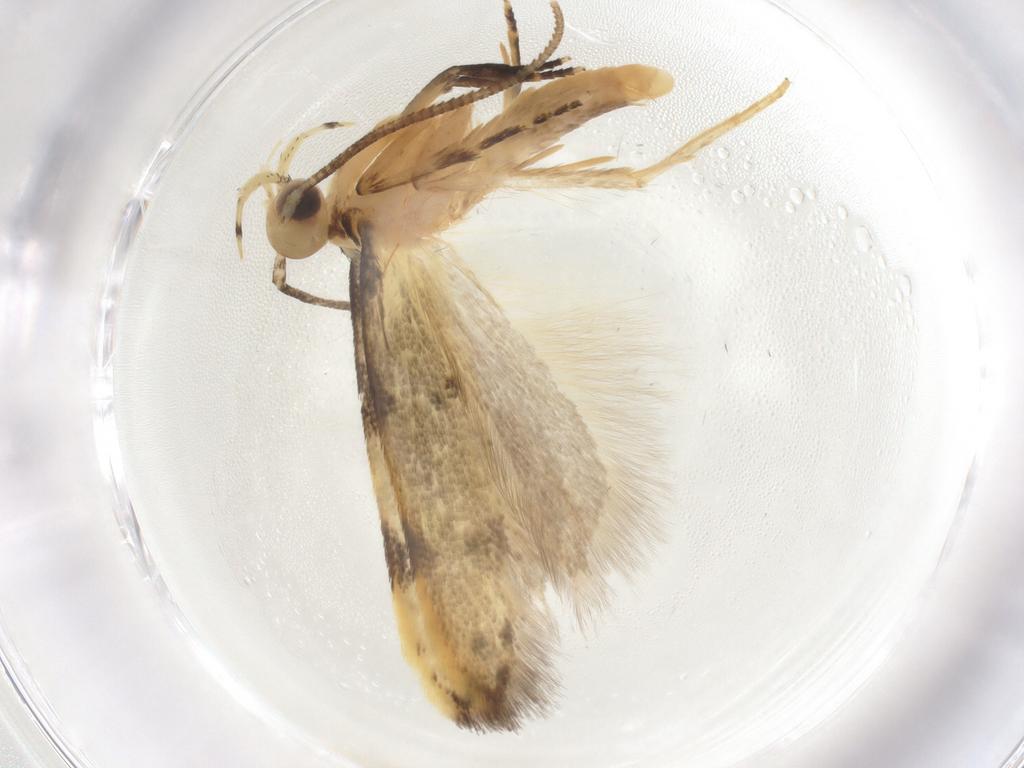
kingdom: Animalia
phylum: Arthropoda
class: Insecta
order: Lepidoptera
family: Autostichidae
